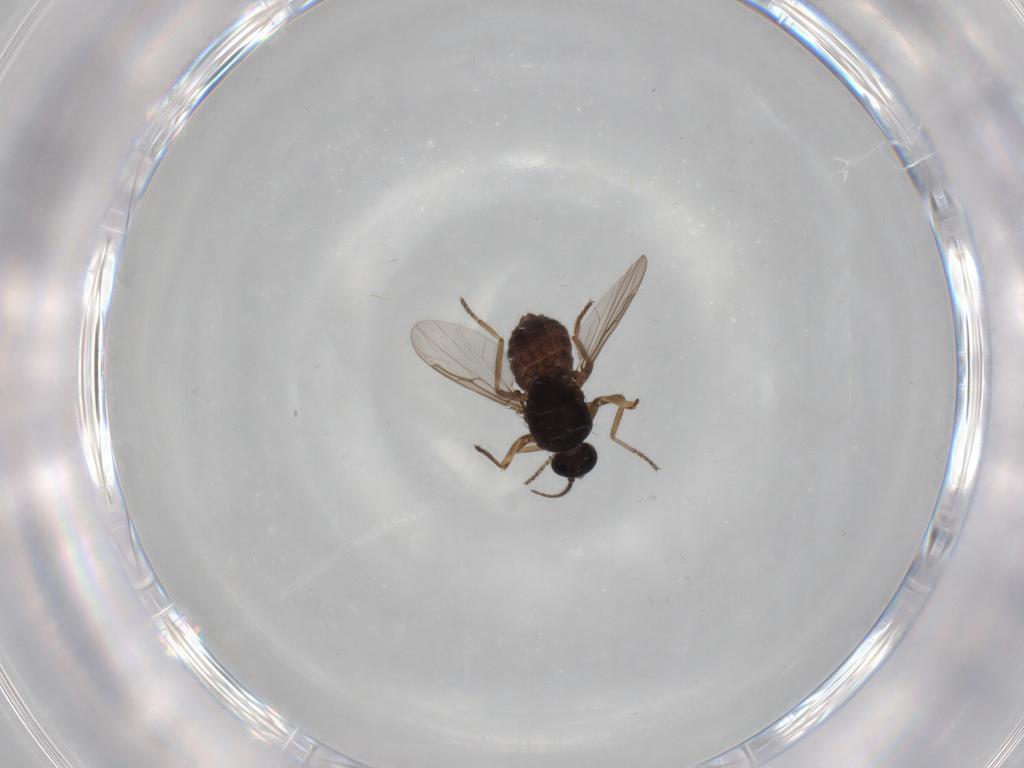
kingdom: Animalia
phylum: Arthropoda
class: Insecta
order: Diptera
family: Ceratopogonidae
